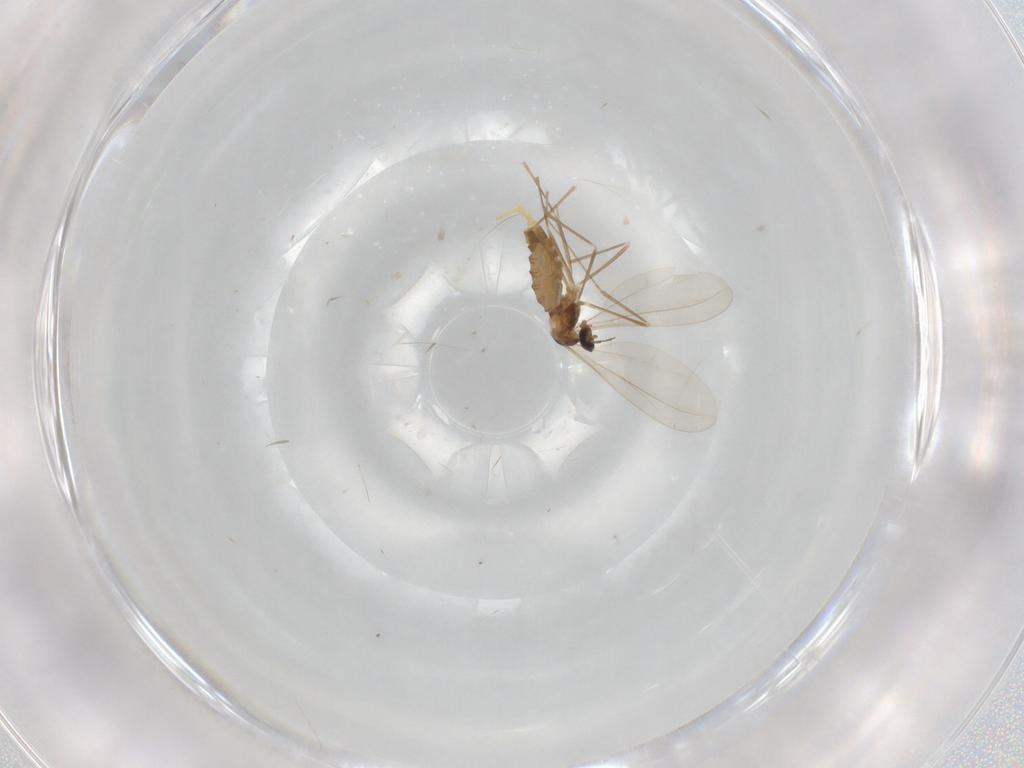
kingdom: Animalia
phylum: Arthropoda
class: Insecta
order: Diptera
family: Cecidomyiidae
